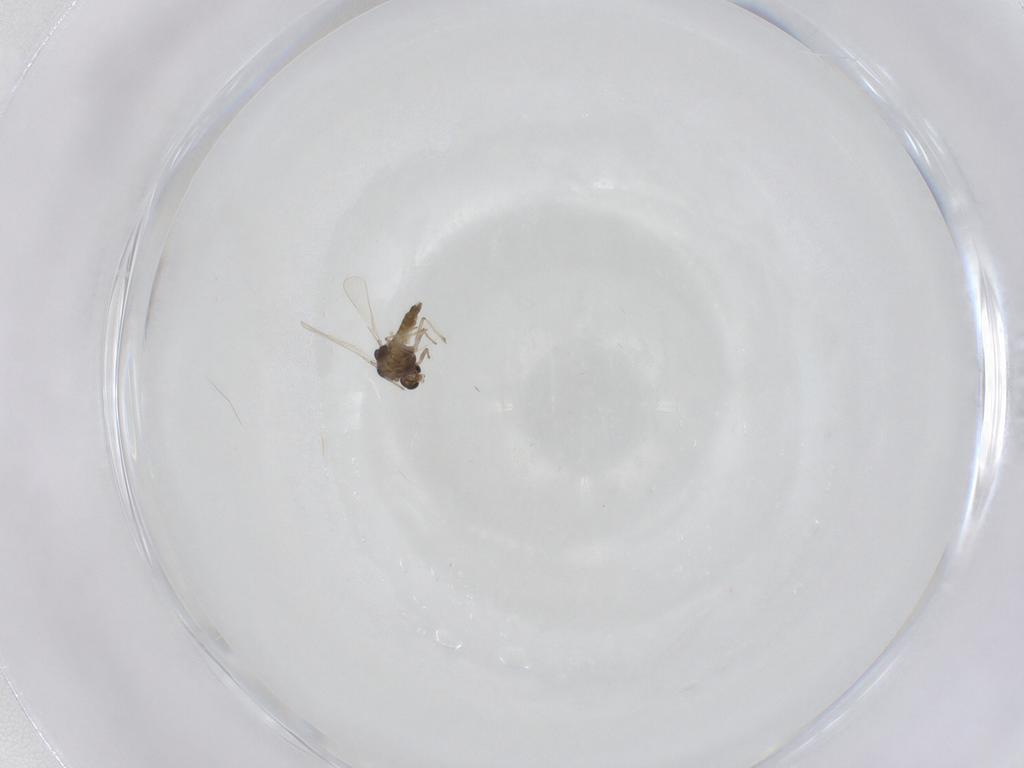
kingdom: Animalia
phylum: Arthropoda
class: Insecta
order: Diptera
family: Chironomidae
